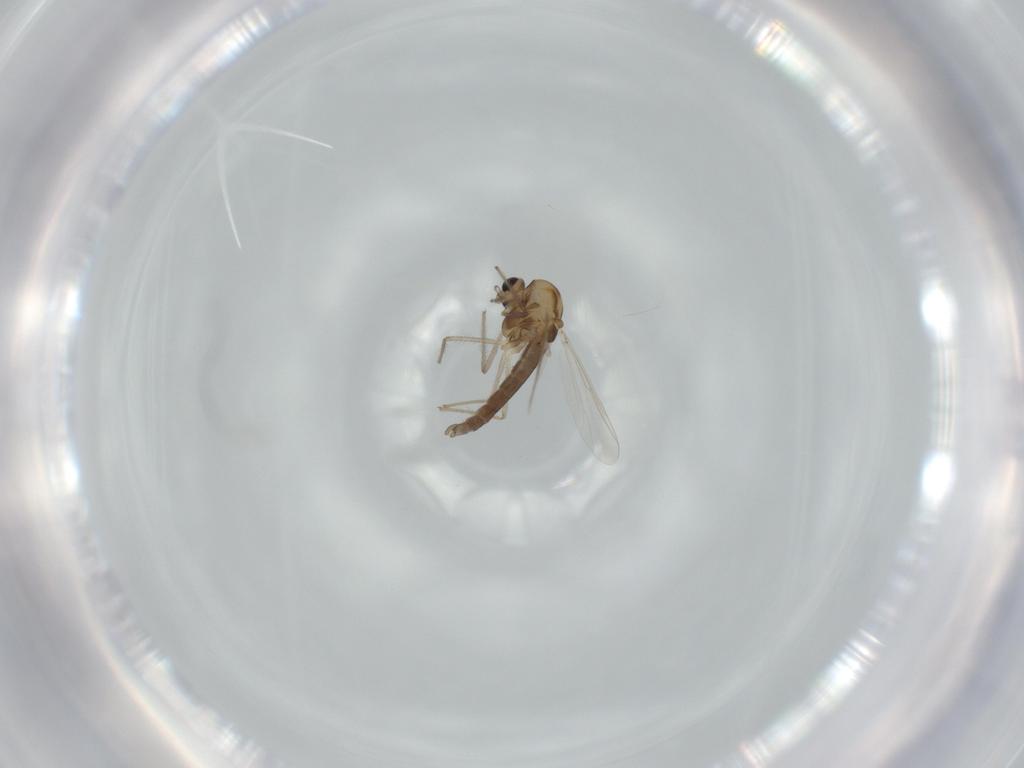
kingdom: Animalia
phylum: Arthropoda
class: Insecta
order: Diptera
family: Chironomidae
